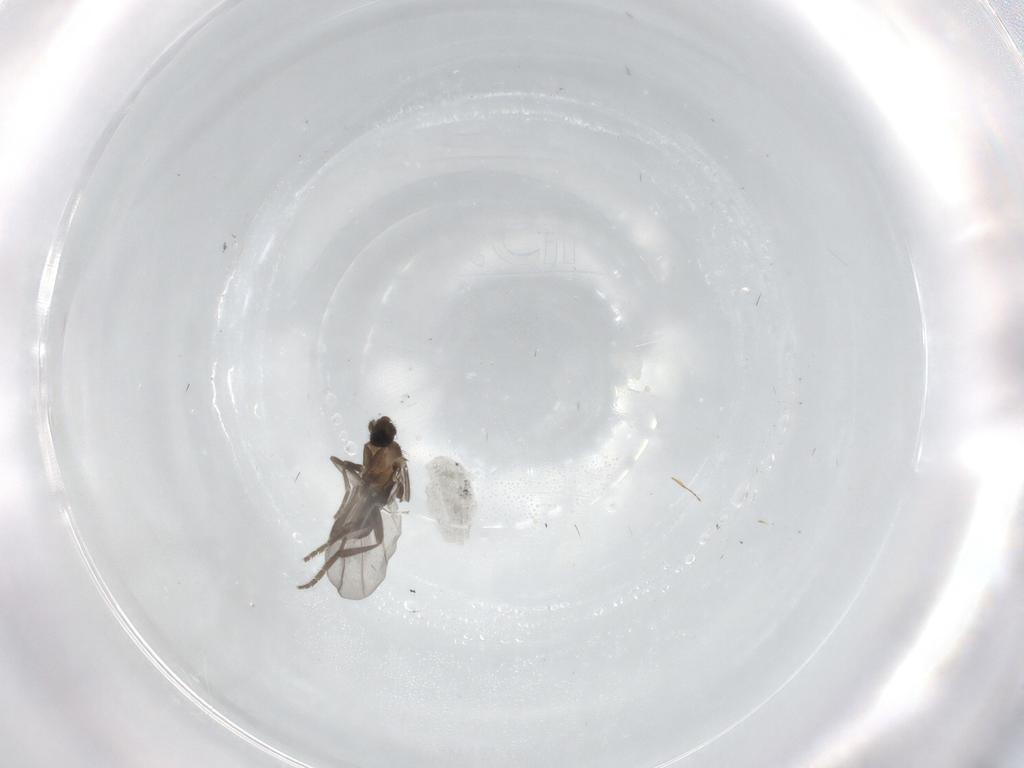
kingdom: Animalia
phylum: Arthropoda
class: Insecta
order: Diptera
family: Phoridae
